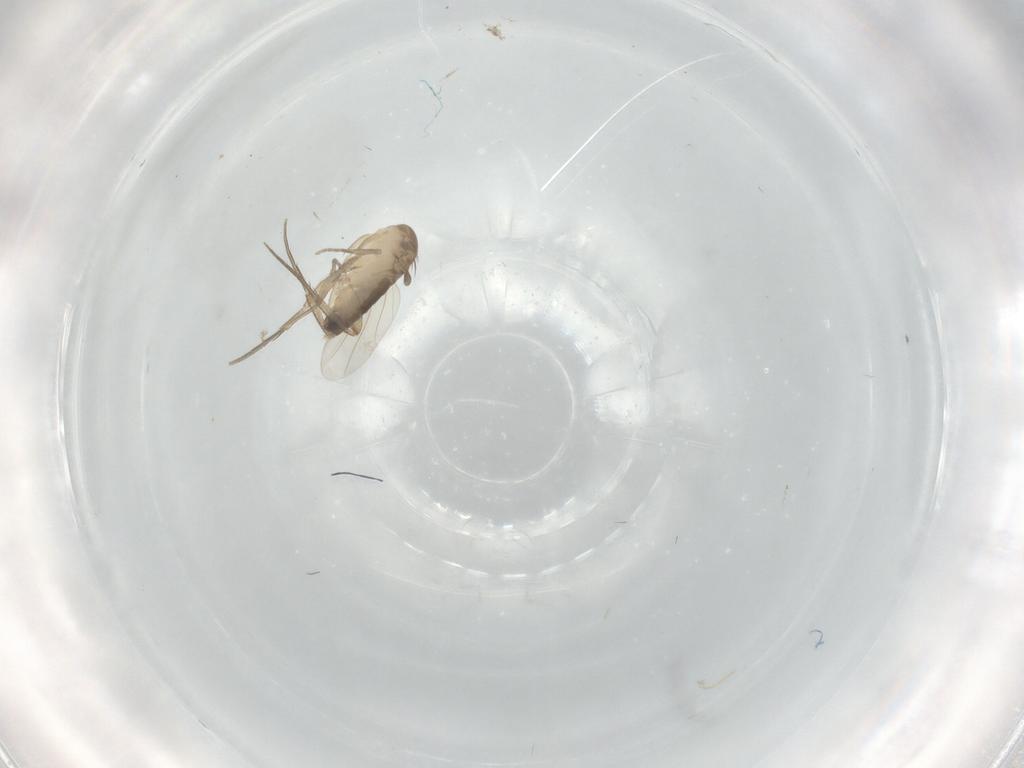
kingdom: Animalia
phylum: Arthropoda
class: Insecta
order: Diptera
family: Phoridae
